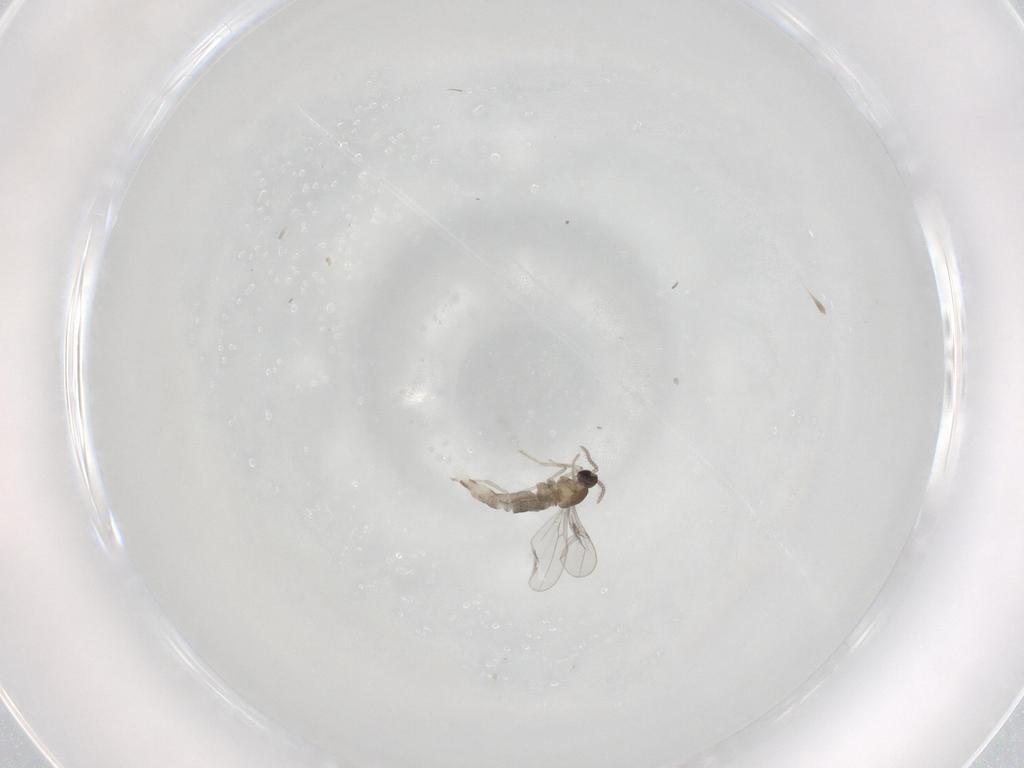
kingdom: Animalia
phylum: Arthropoda
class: Insecta
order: Diptera
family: Cecidomyiidae
